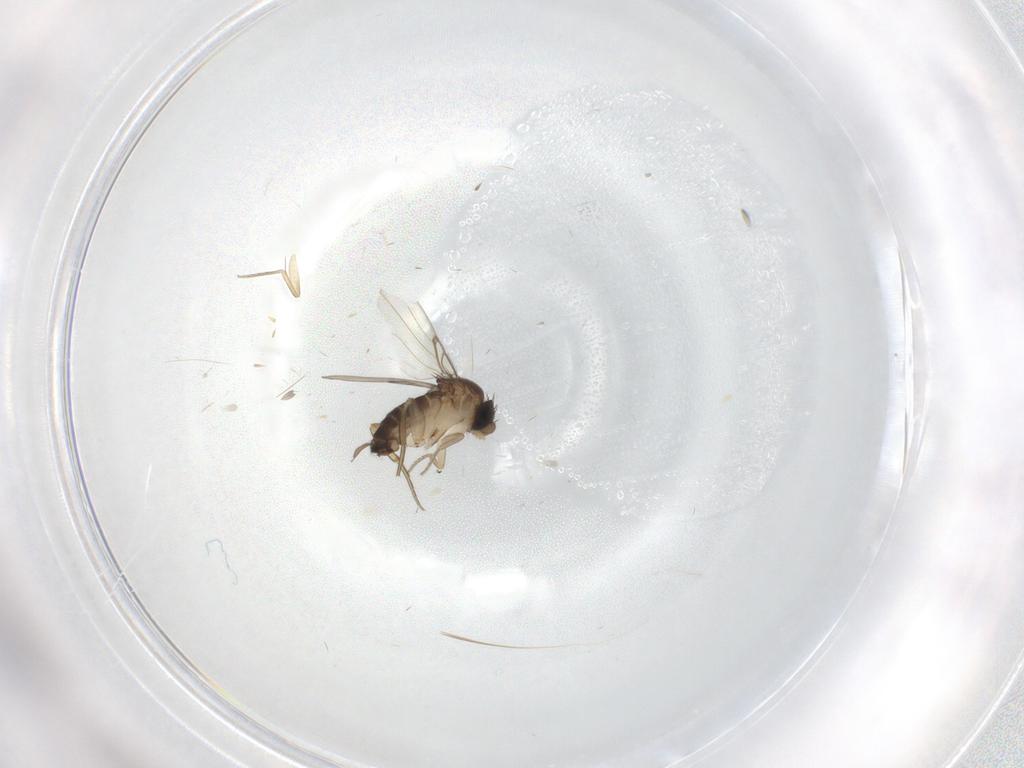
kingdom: Animalia
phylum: Arthropoda
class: Insecta
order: Diptera
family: Phoridae
